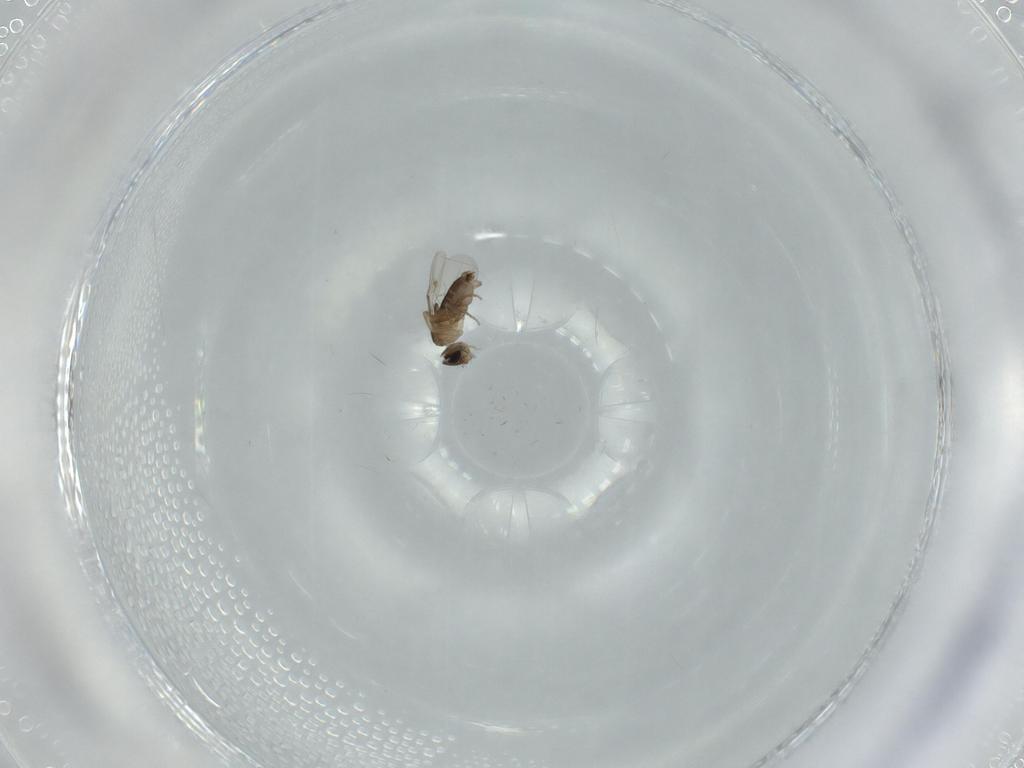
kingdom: Animalia
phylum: Arthropoda
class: Insecta
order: Diptera
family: Phoridae
